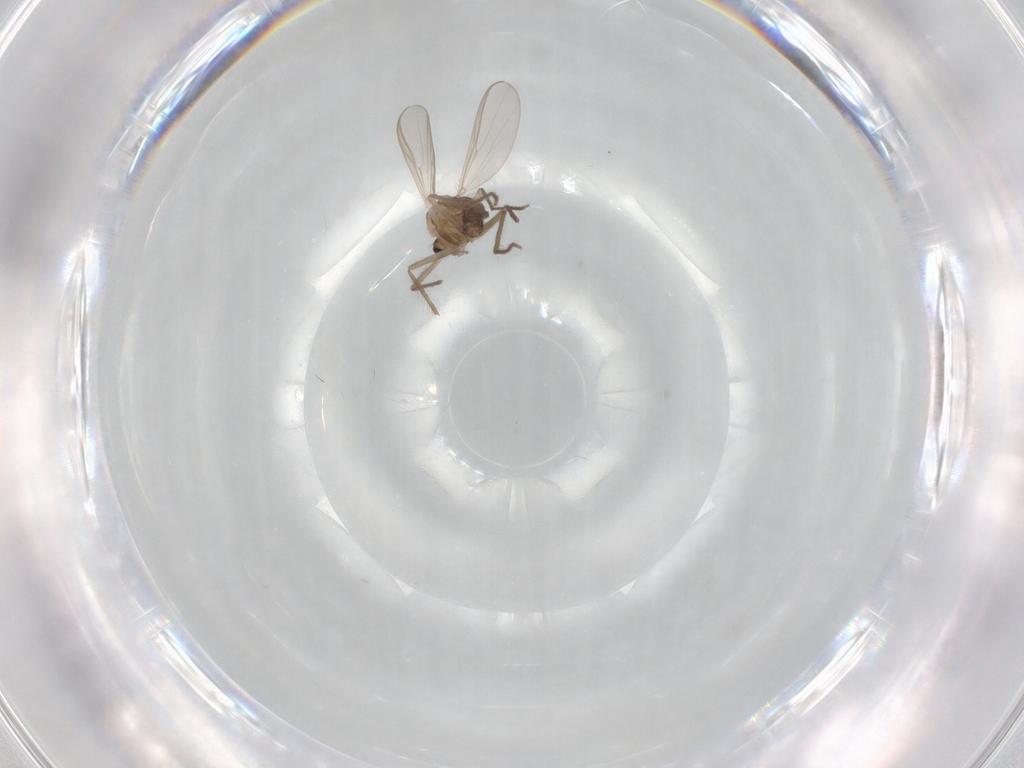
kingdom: Animalia
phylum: Arthropoda
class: Insecta
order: Diptera
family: Chironomidae
